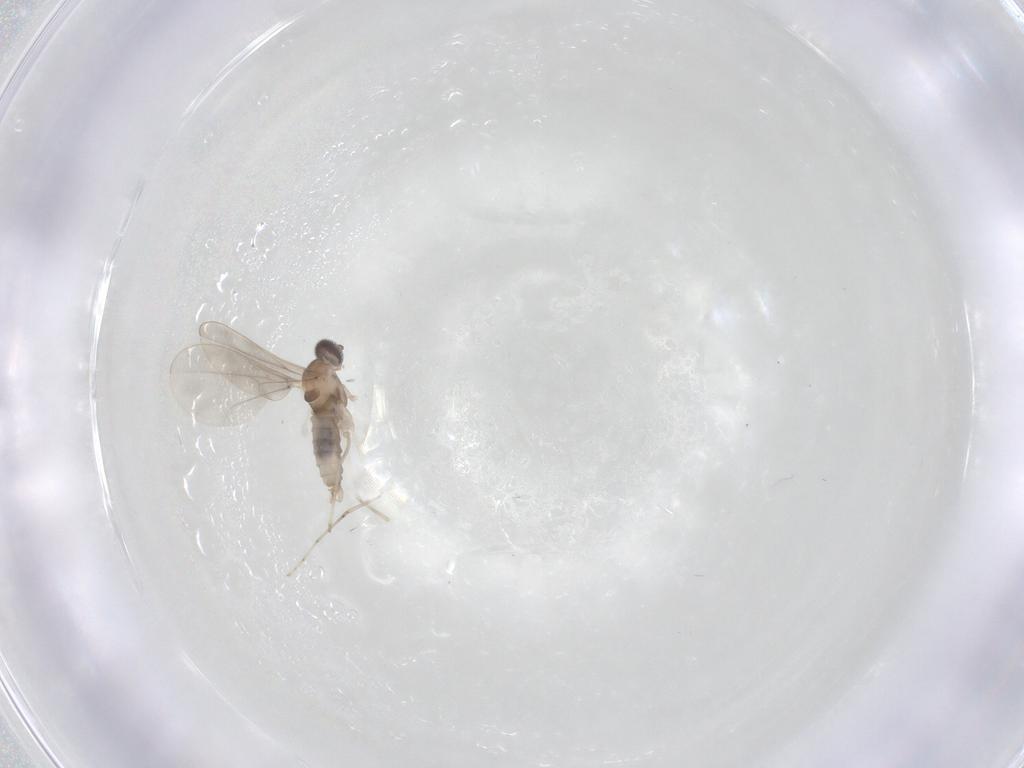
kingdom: Animalia
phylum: Arthropoda
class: Insecta
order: Diptera
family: Cecidomyiidae
